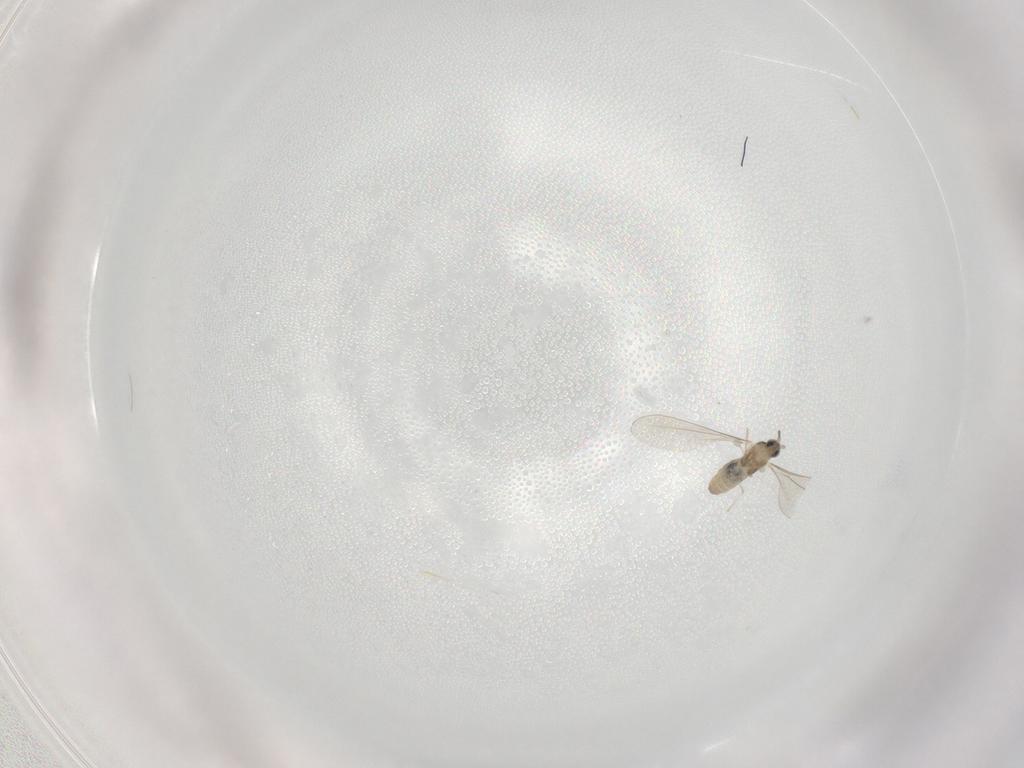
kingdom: Animalia
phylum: Arthropoda
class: Insecta
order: Diptera
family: Cecidomyiidae
